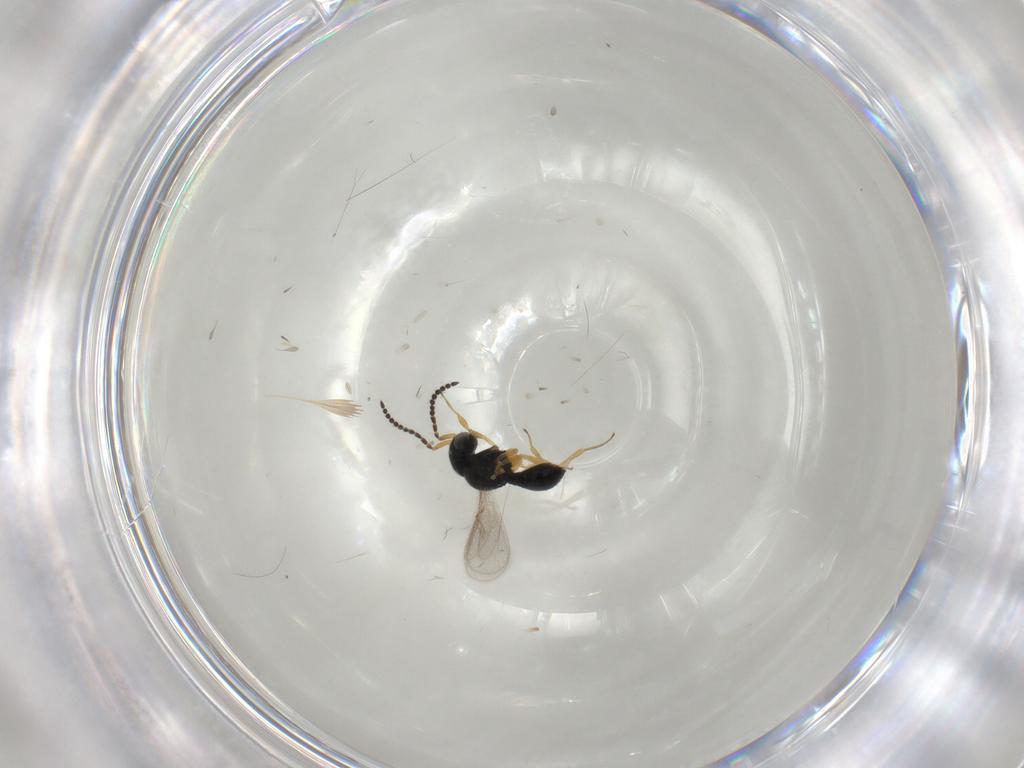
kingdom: Animalia
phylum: Arthropoda
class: Insecta
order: Hymenoptera
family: Scelionidae
